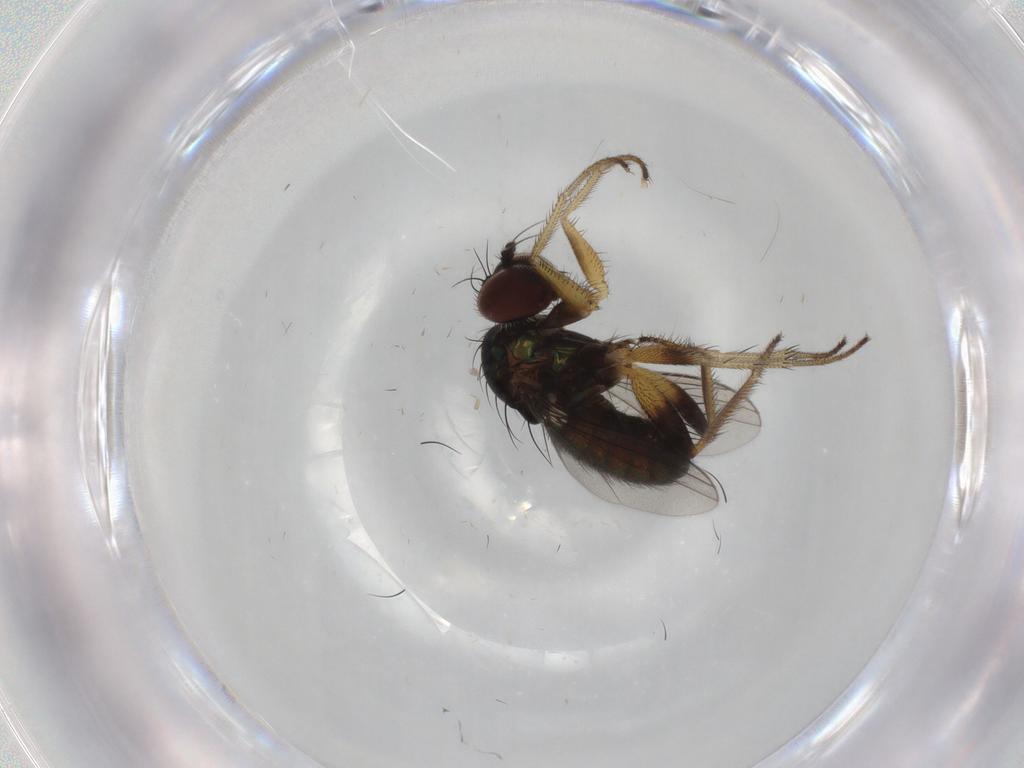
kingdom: Animalia
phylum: Arthropoda
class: Insecta
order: Diptera
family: Dolichopodidae
